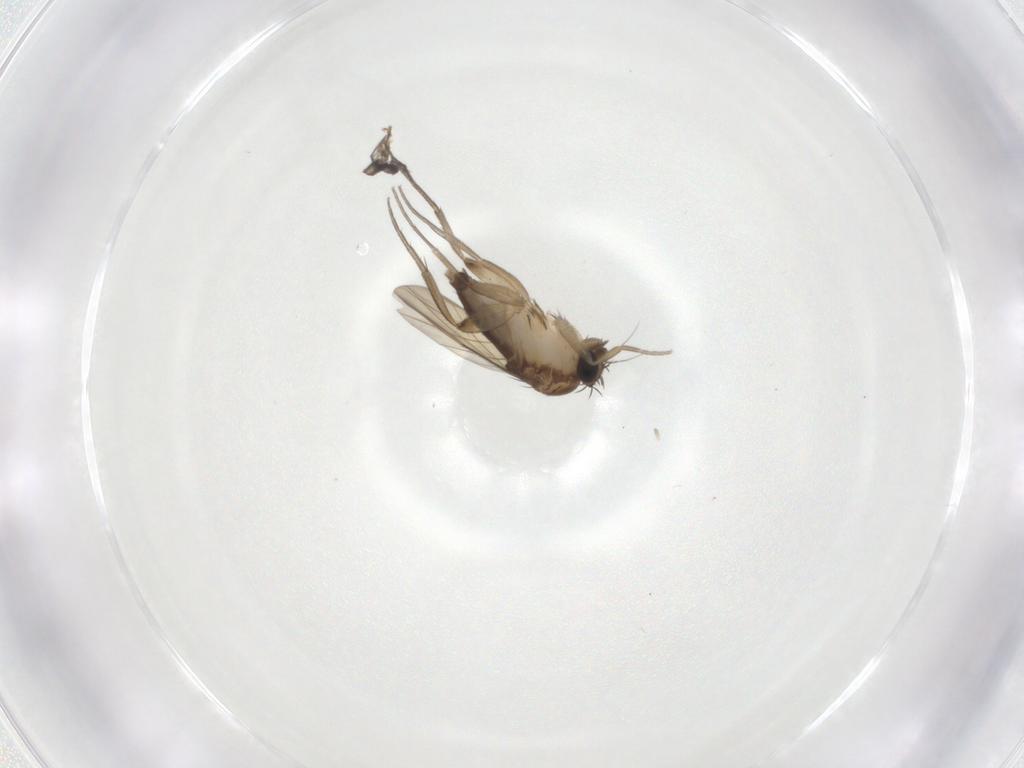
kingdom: Animalia
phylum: Arthropoda
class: Insecta
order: Diptera
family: Phoridae
